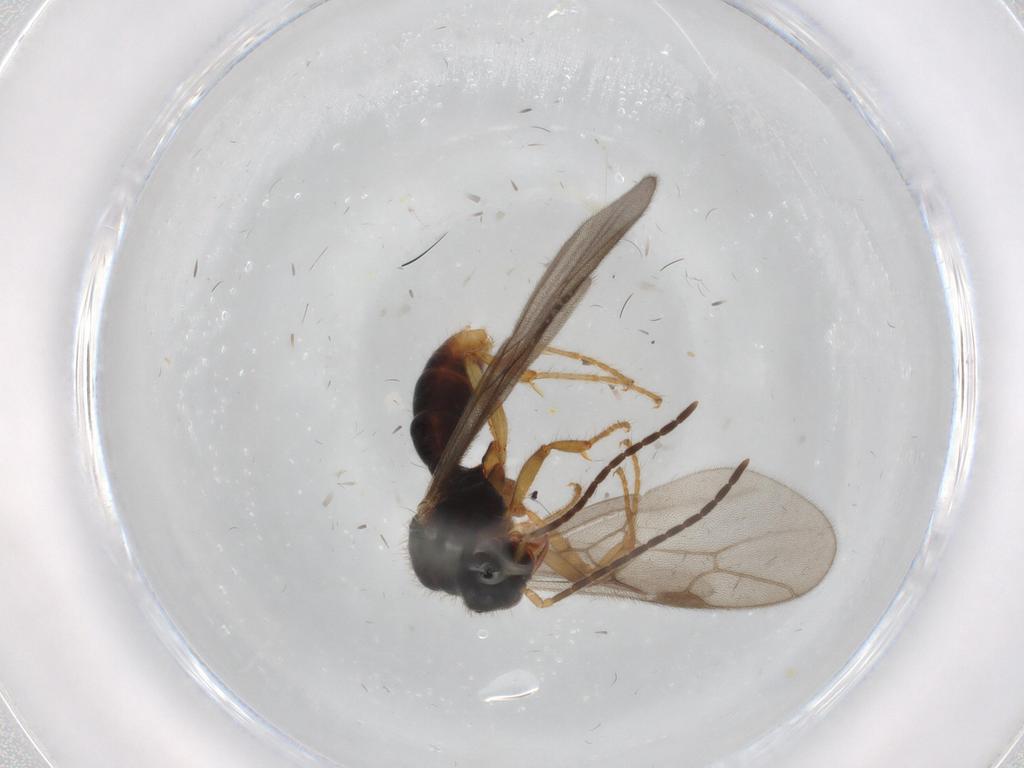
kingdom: Animalia
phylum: Arthropoda
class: Insecta
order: Hymenoptera
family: Formicidae
